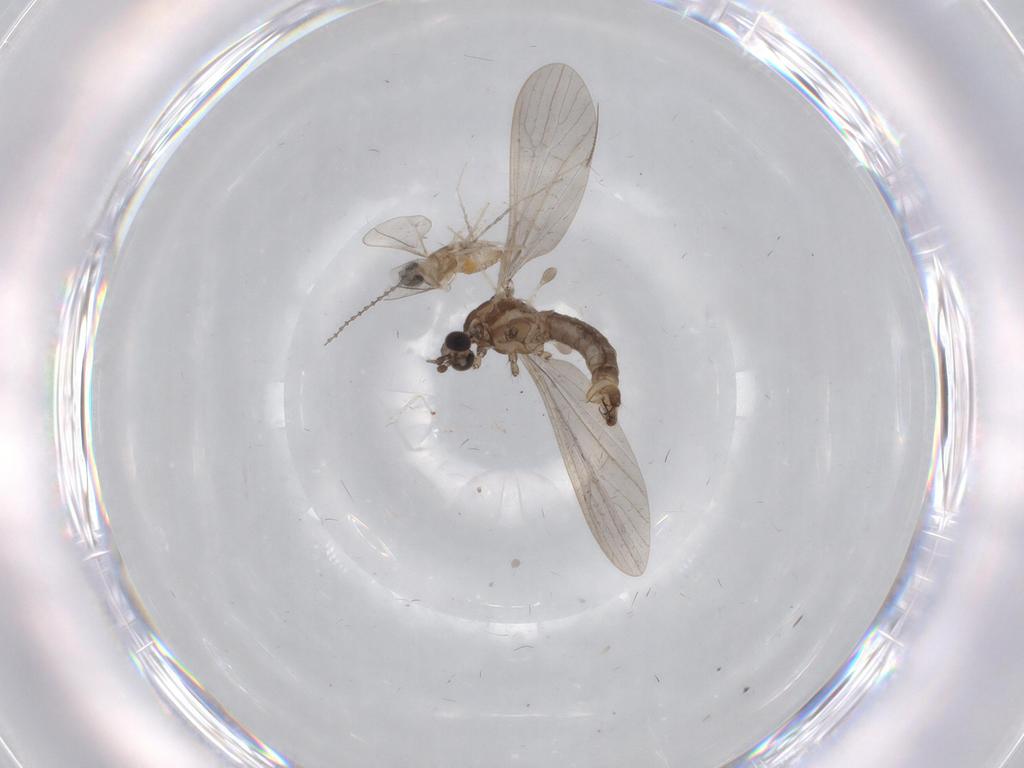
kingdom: Animalia
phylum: Arthropoda
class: Insecta
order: Diptera
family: Limoniidae
